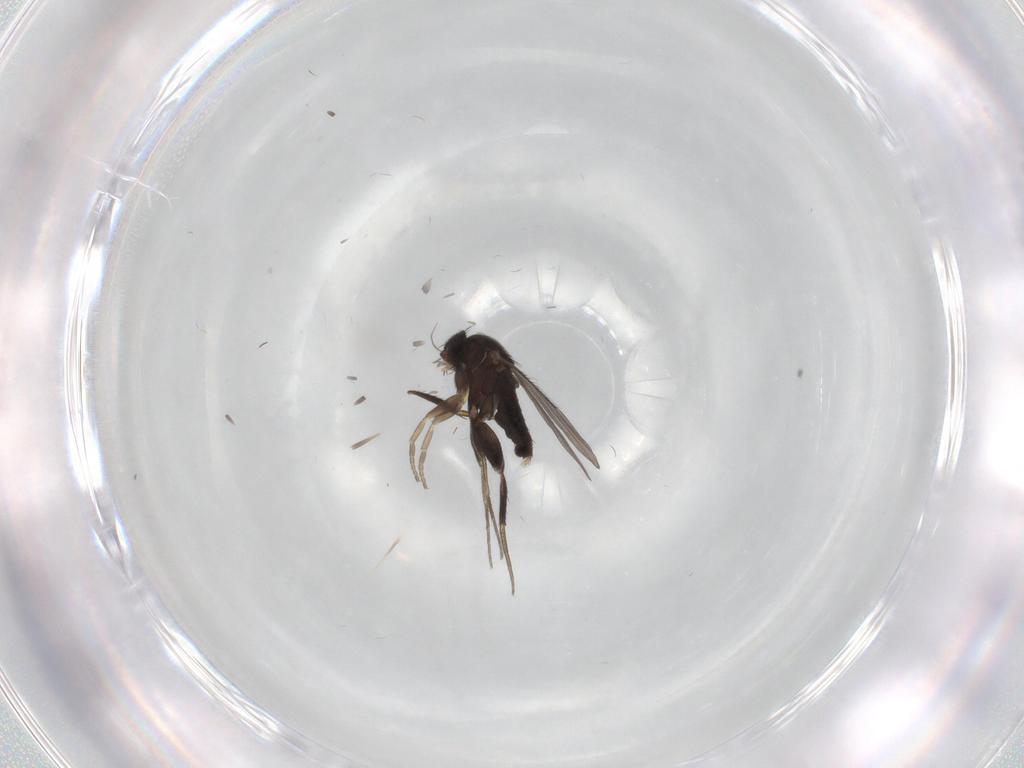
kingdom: Animalia
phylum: Arthropoda
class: Insecta
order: Diptera
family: Phoridae
